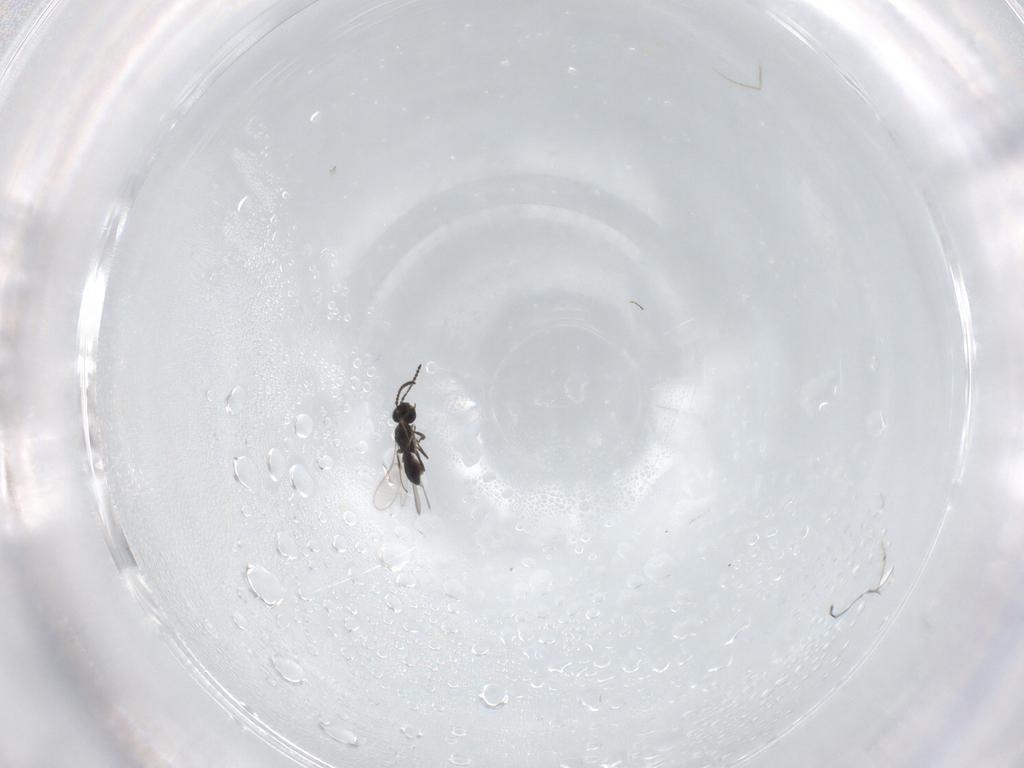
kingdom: Animalia
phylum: Arthropoda
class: Insecta
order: Hymenoptera
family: Scelionidae
